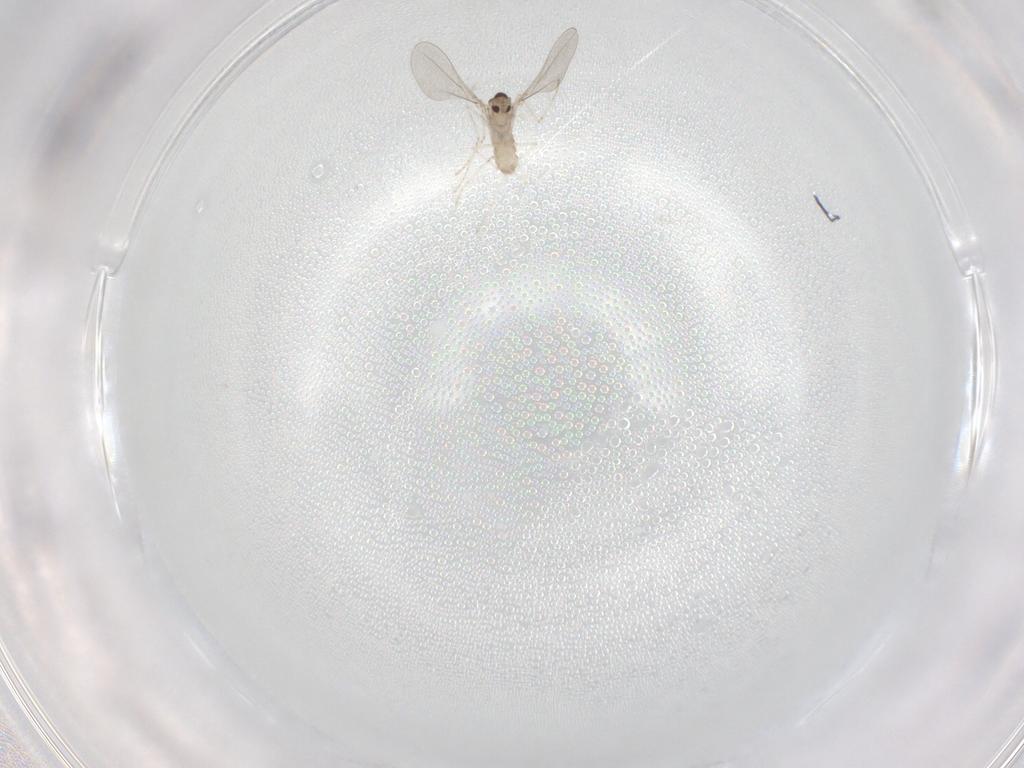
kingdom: Animalia
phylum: Arthropoda
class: Insecta
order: Diptera
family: Cecidomyiidae
